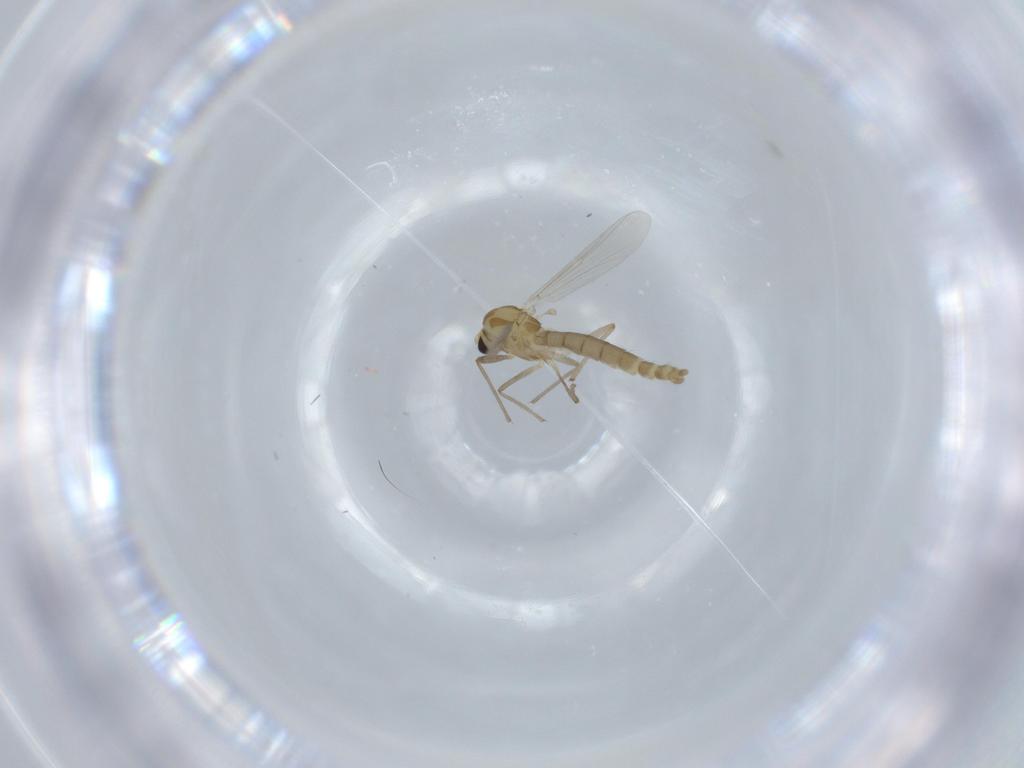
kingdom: Animalia
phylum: Arthropoda
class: Insecta
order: Diptera
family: Chironomidae
